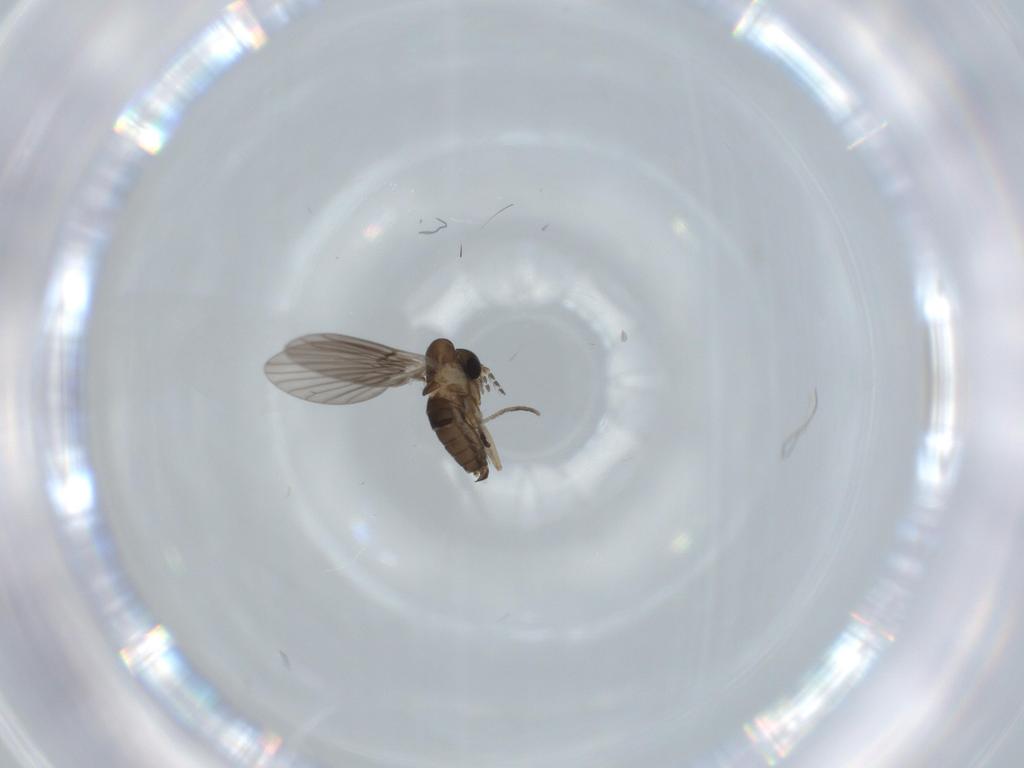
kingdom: Animalia
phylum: Arthropoda
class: Insecta
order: Diptera
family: Psychodidae
